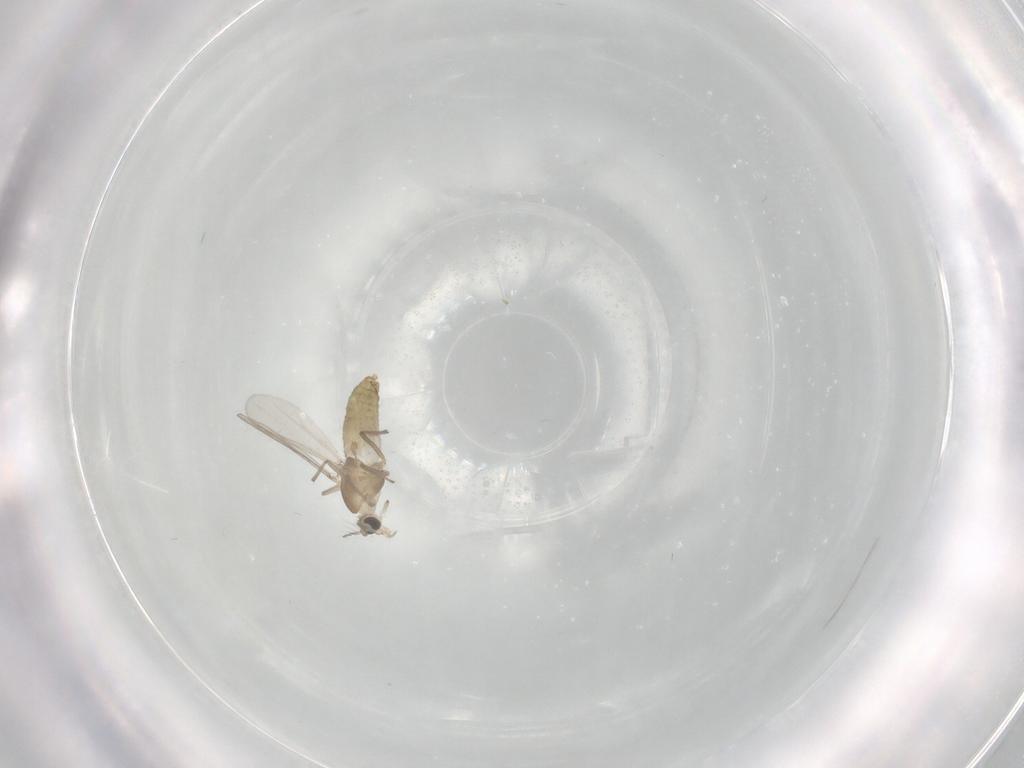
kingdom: Animalia
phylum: Arthropoda
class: Insecta
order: Diptera
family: Chironomidae
